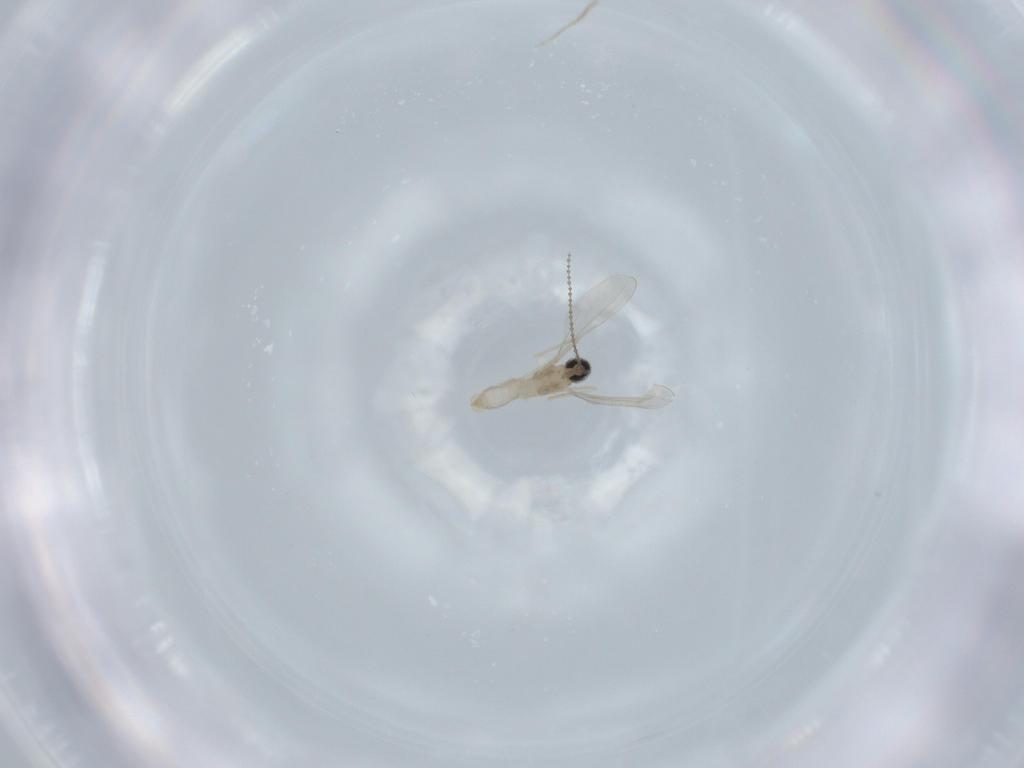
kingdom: Animalia
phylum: Arthropoda
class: Insecta
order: Diptera
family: Cecidomyiidae
